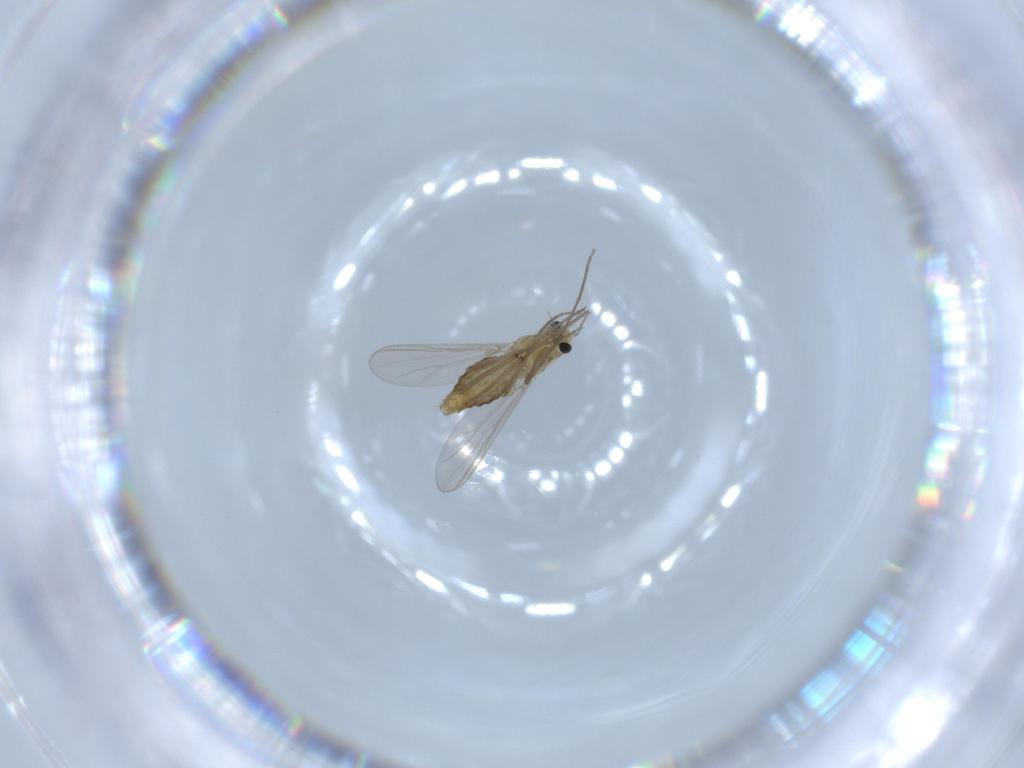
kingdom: Animalia
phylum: Arthropoda
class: Insecta
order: Diptera
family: Chironomidae
